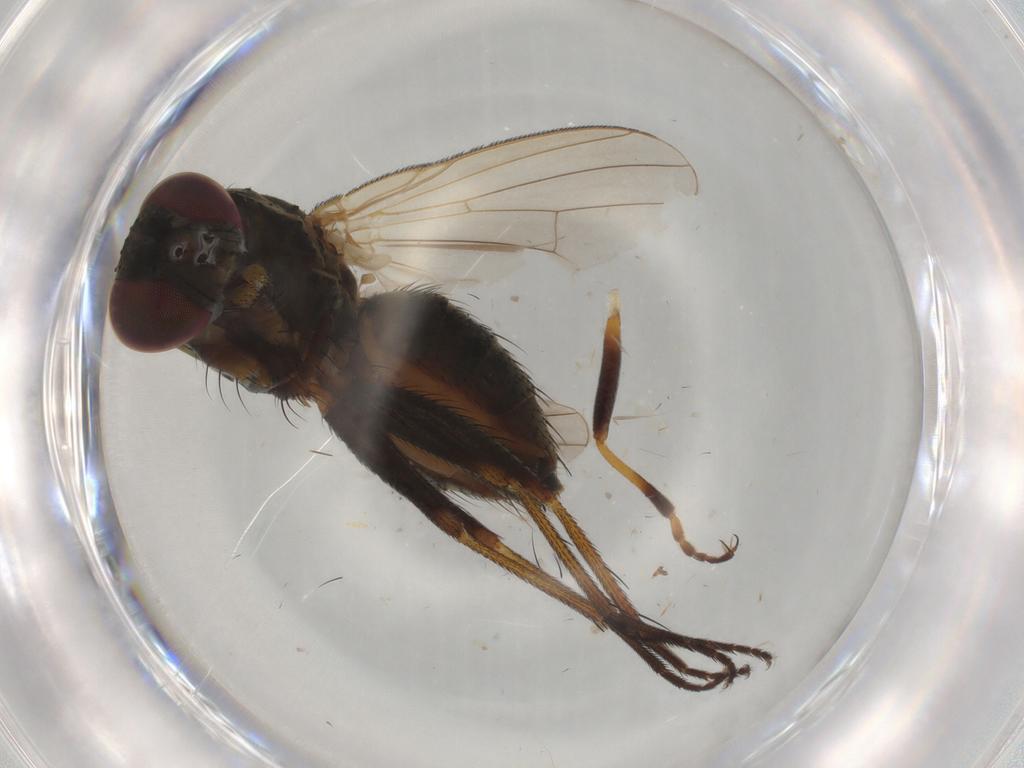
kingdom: Animalia
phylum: Arthropoda
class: Insecta
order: Diptera
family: Muscidae
